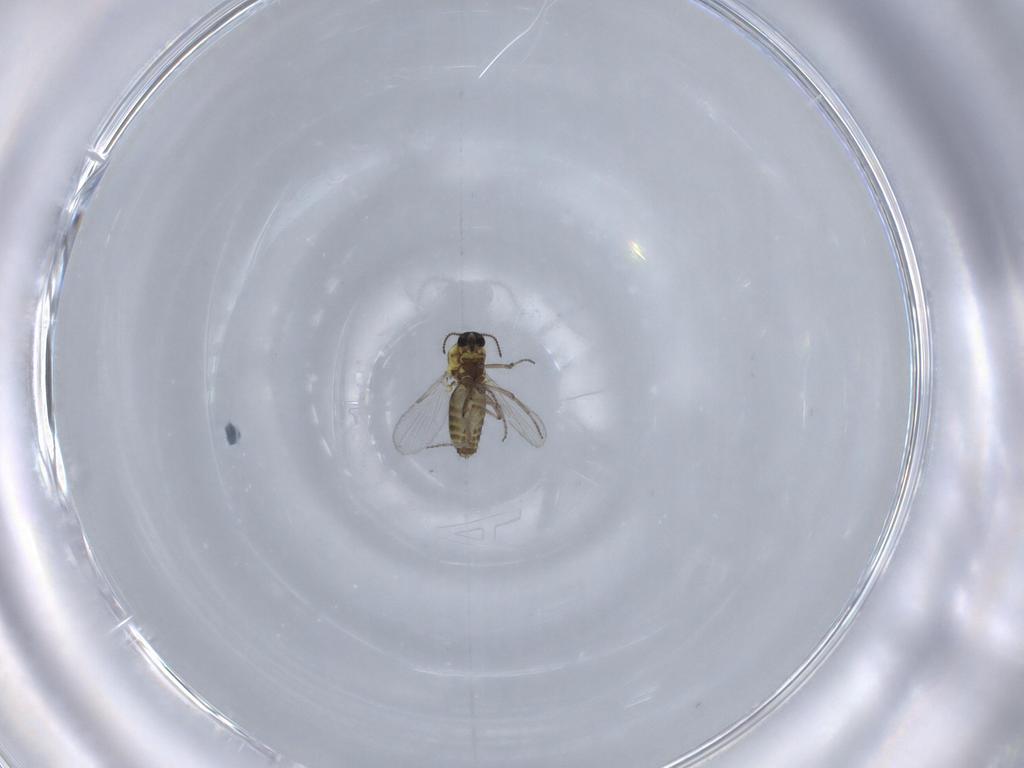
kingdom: Animalia
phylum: Arthropoda
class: Insecta
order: Diptera
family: Ceratopogonidae
